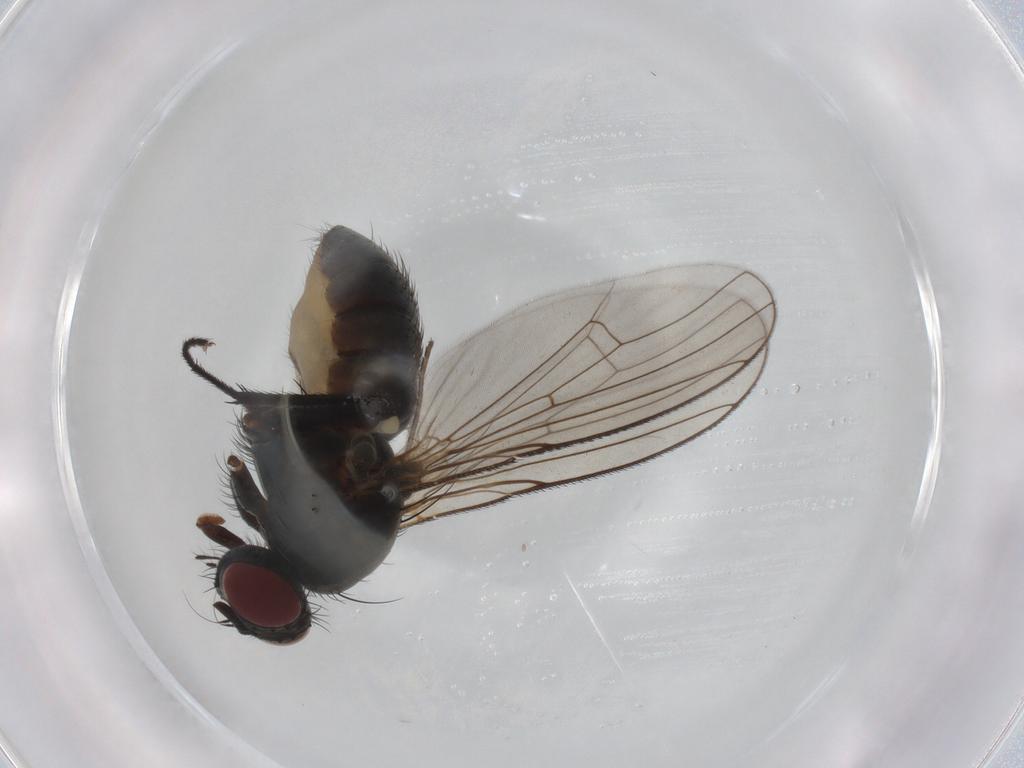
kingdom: Animalia
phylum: Arthropoda
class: Insecta
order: Diptera
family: Muscidae
